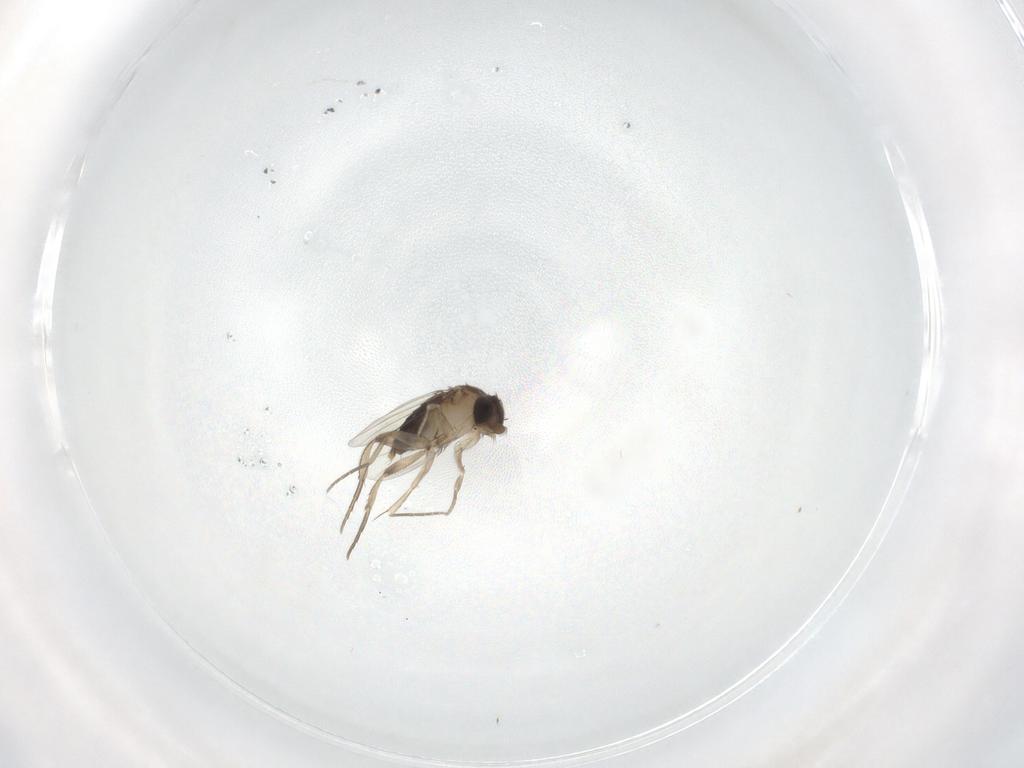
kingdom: Animalia
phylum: Arthropoda
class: Insecta
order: Diptera
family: Phoridae
